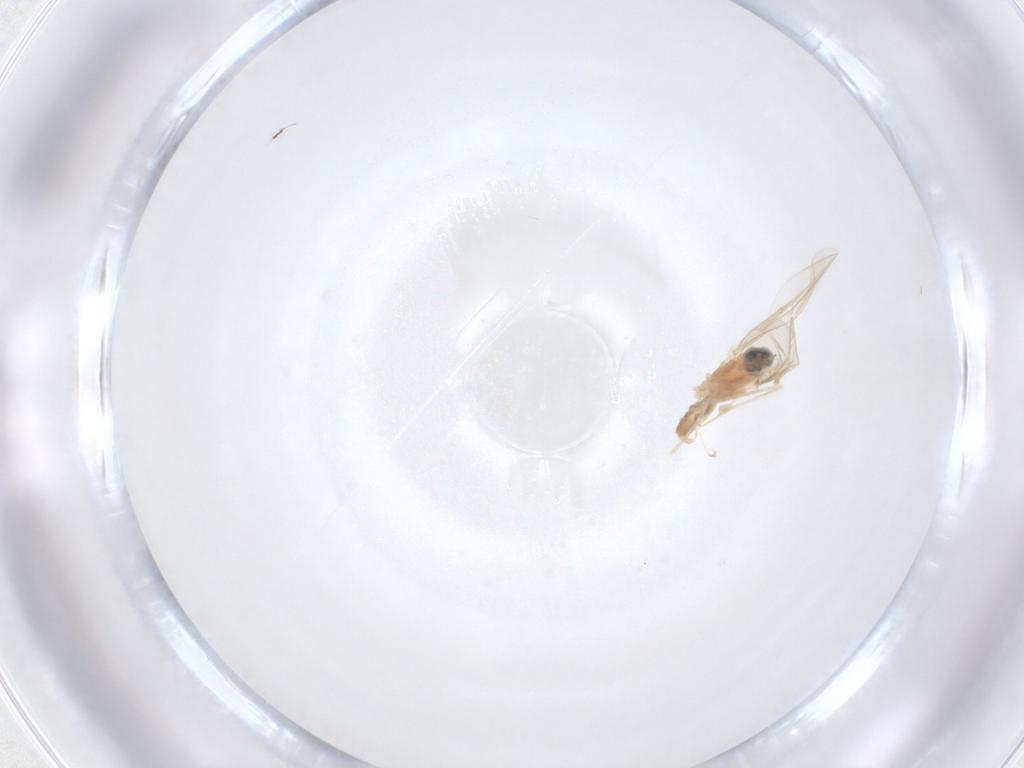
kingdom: Animalia
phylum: Arthropoda
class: Insecta
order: Diptera
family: Cecidomyiidae
